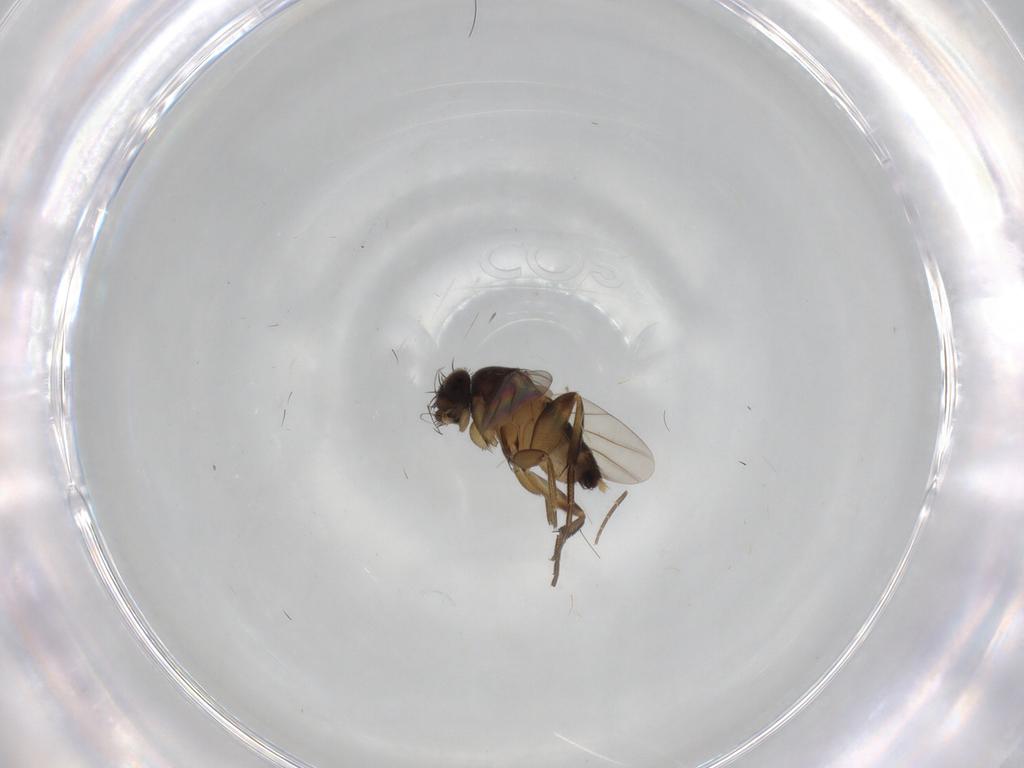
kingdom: Animalia
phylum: Arthropoda
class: Insecta
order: Diptera
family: Phoridae
